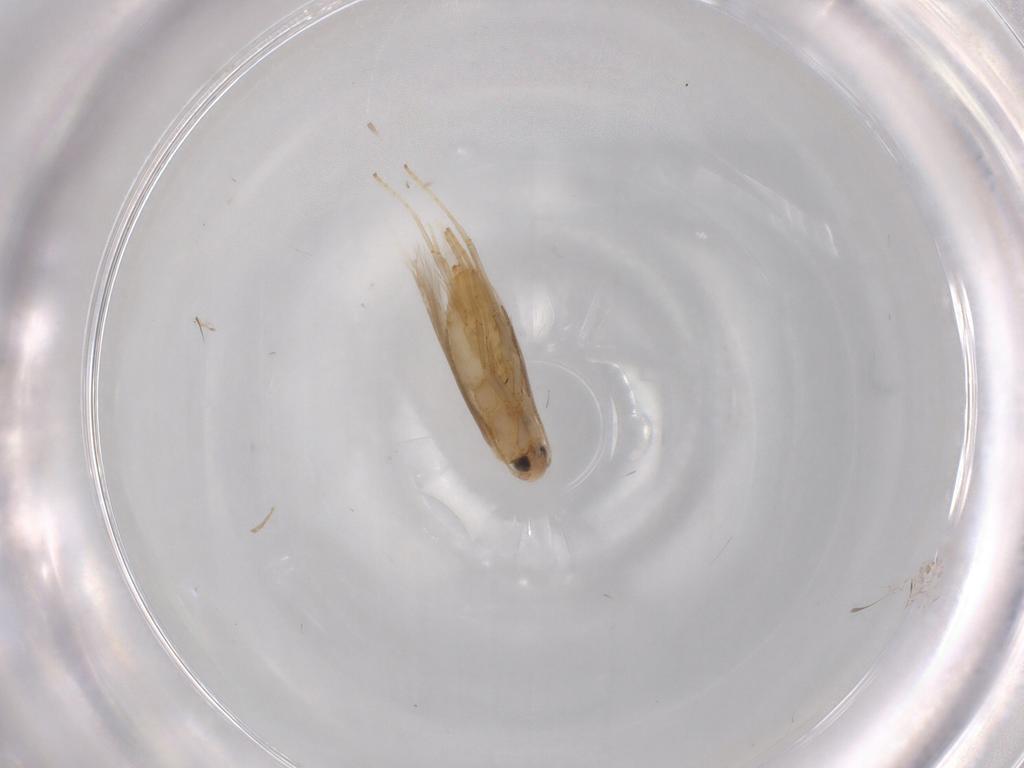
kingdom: Animalia
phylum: Arthropoda
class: Insecta
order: Lepidoptera
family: Tischeriidae
